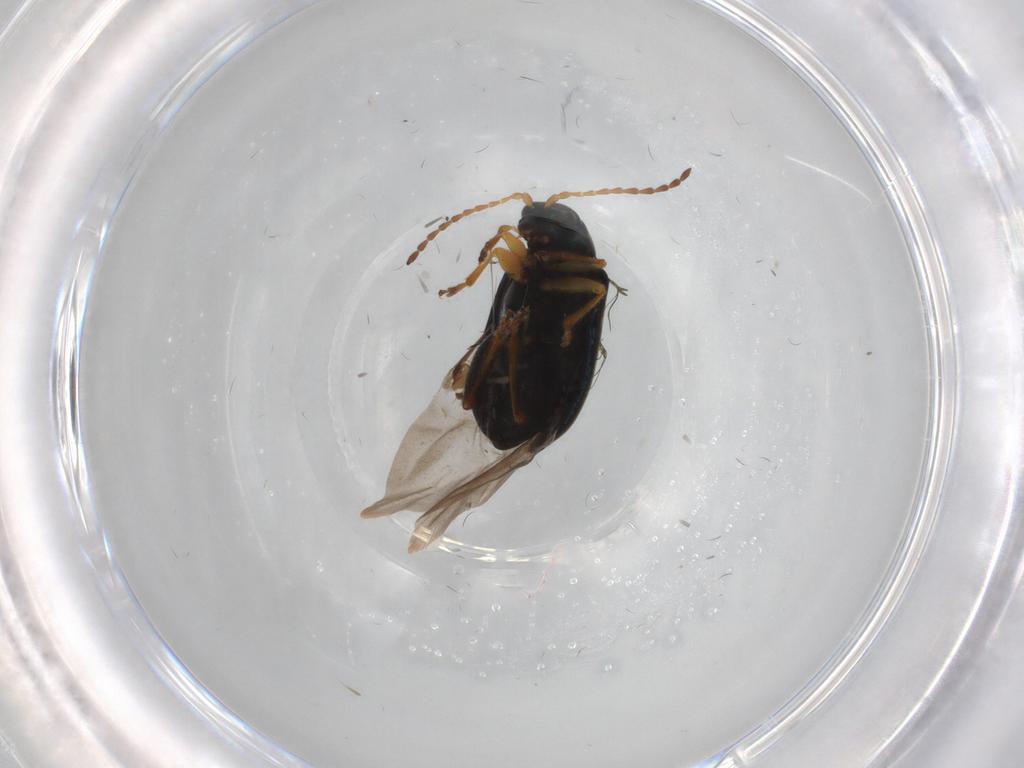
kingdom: Animalia
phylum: Arthropoda
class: Insecta
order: Coleoptera
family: Chrysomelidae
